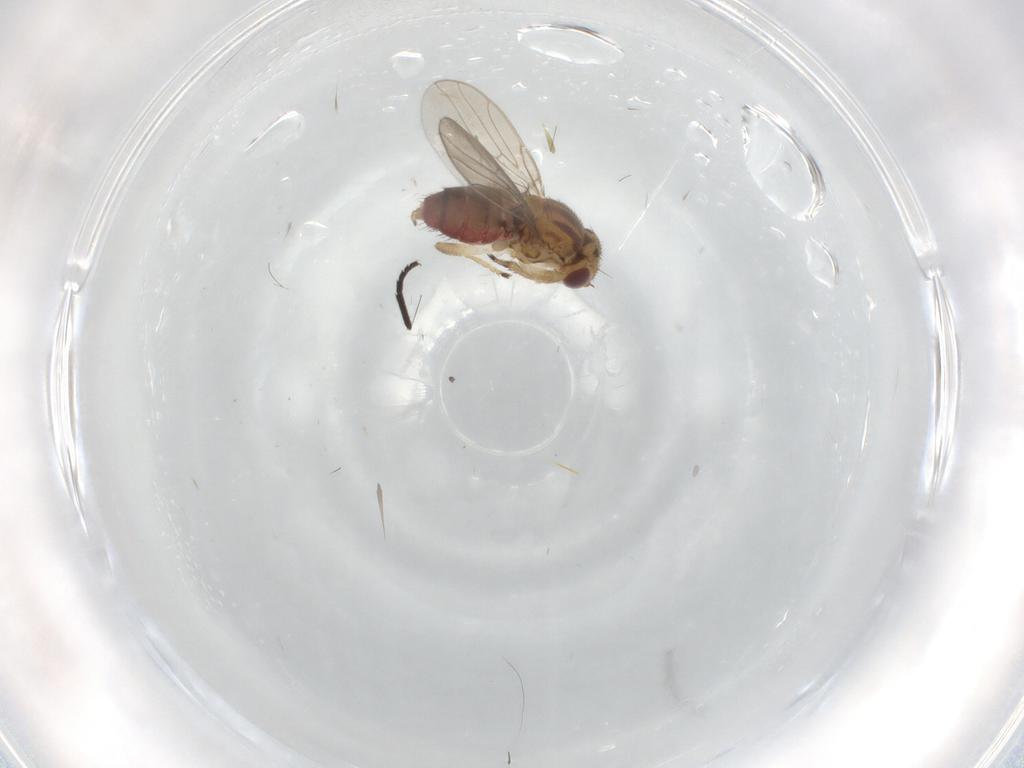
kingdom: Animalia
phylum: Arthropoda
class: Insecta
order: Diptera
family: Chloropidae
